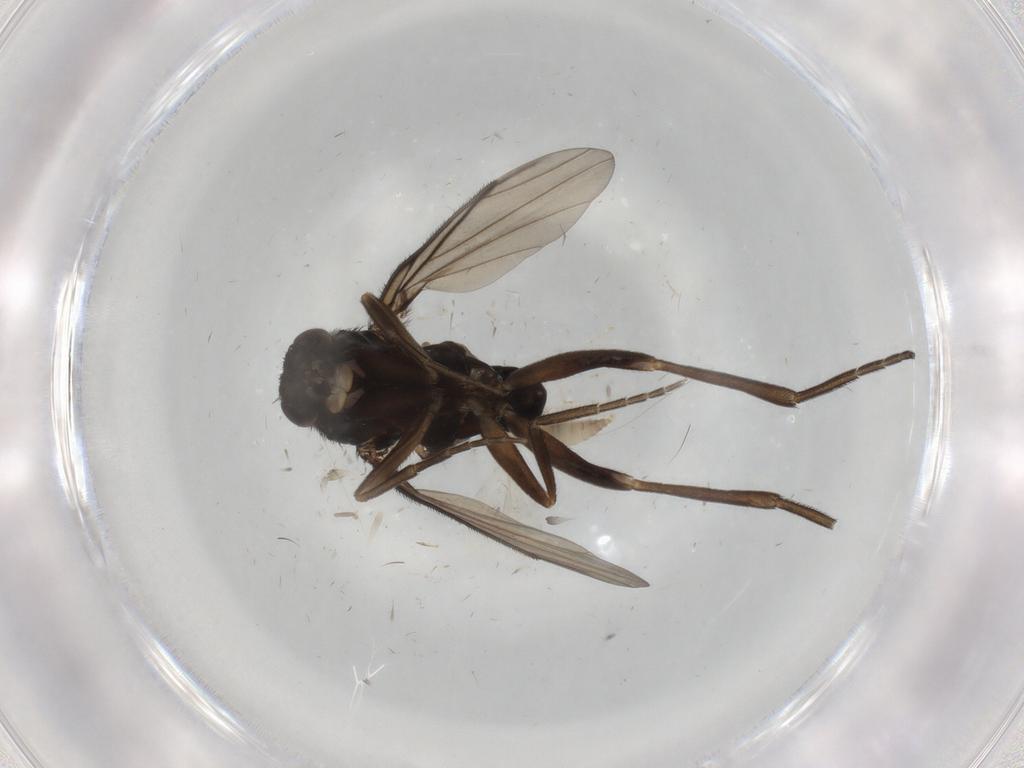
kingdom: Animalia
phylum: Arthropoda
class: Insecta
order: Diptera
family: Phoridae
